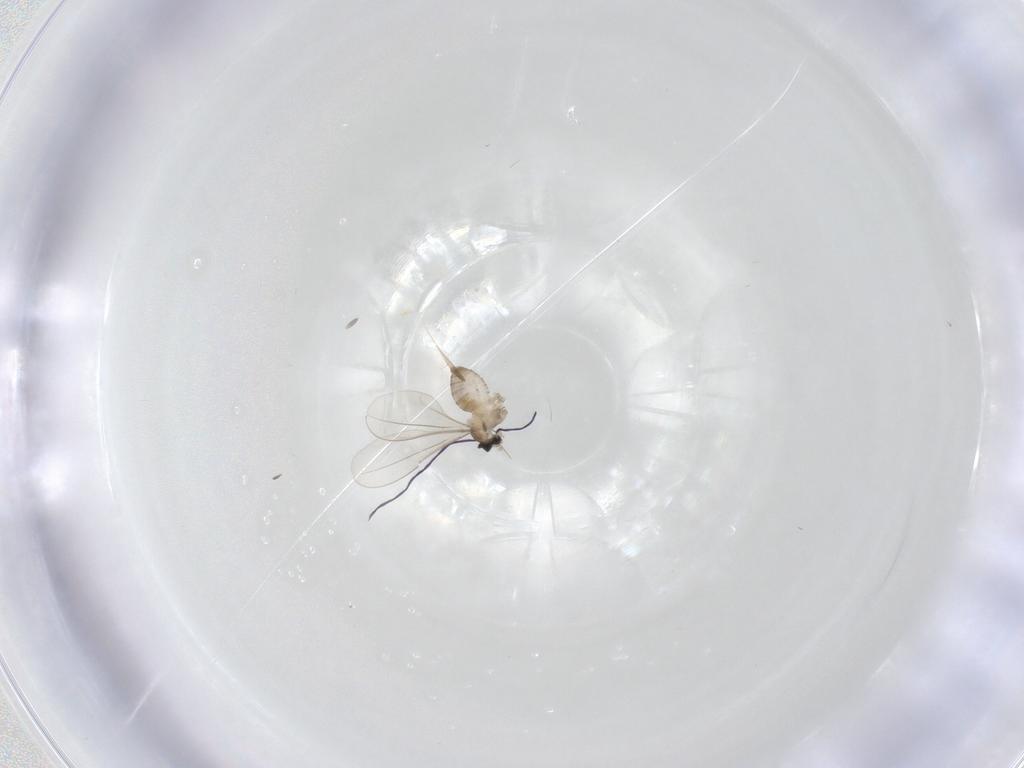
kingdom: Animalia
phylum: Arthropoda
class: Insecta
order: Diptera
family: Cecidomyiidae
